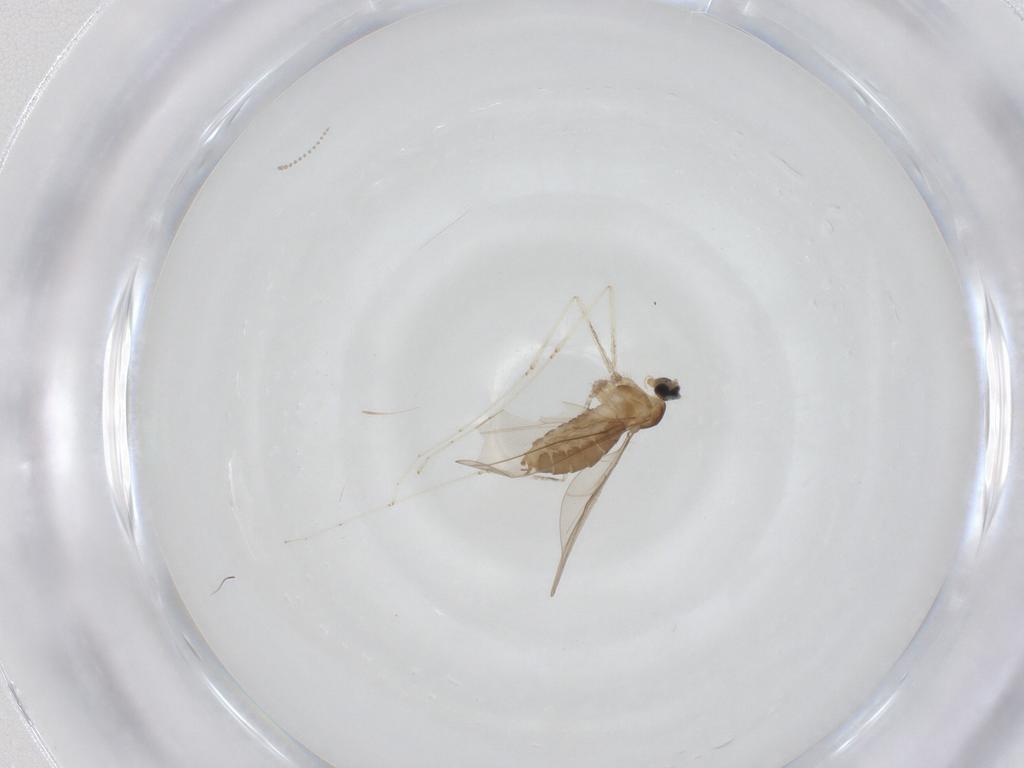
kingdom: Animalia
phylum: Arthropoda
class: Insecta
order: Diptera
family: Cecidomyiidae
